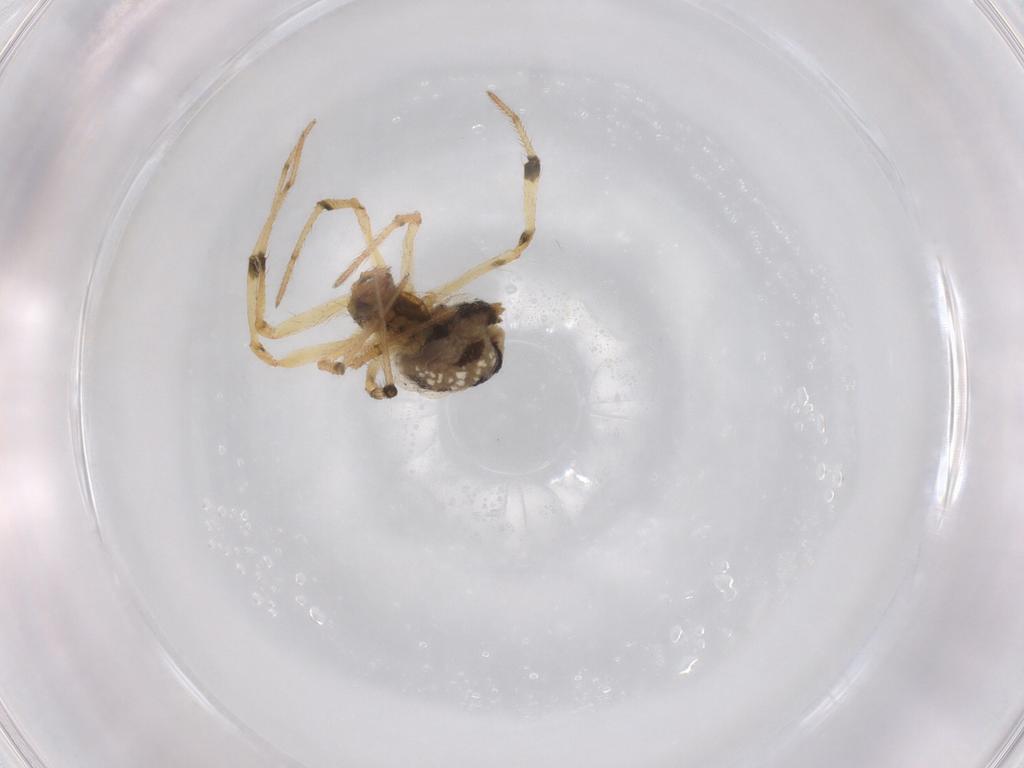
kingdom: Animalia
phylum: Arthropoda
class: Arachnida
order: Araneae
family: Theridiidae
